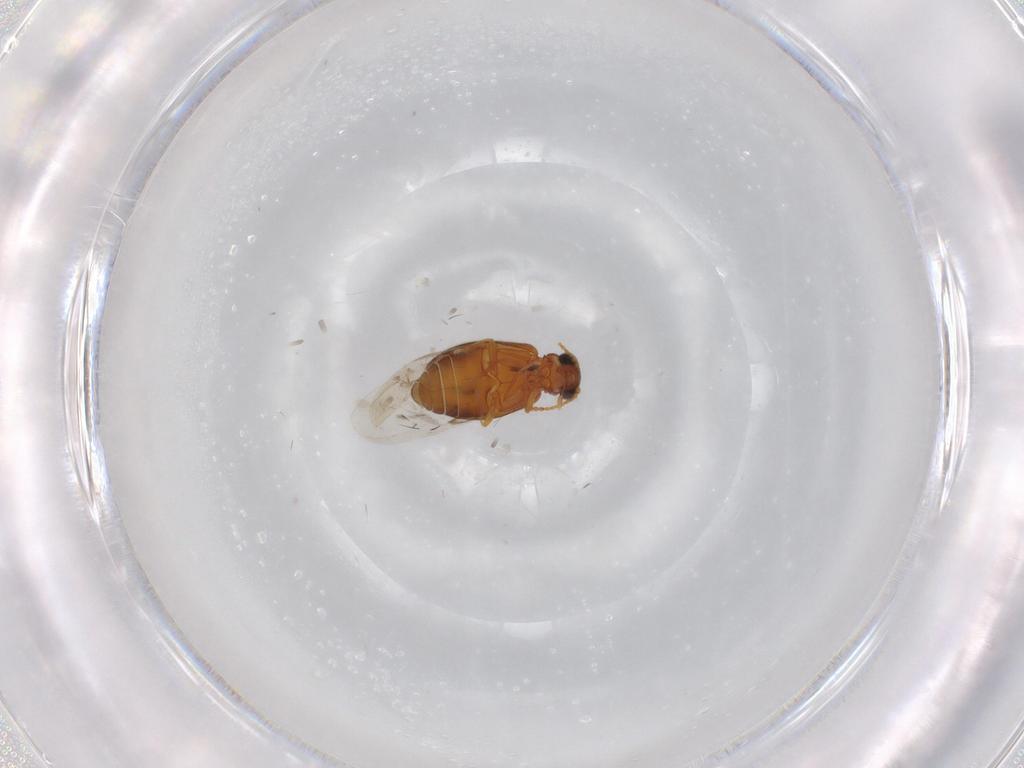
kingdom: Animalia
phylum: Arthropoda
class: Insecta
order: Coleoptera
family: Aderidae
